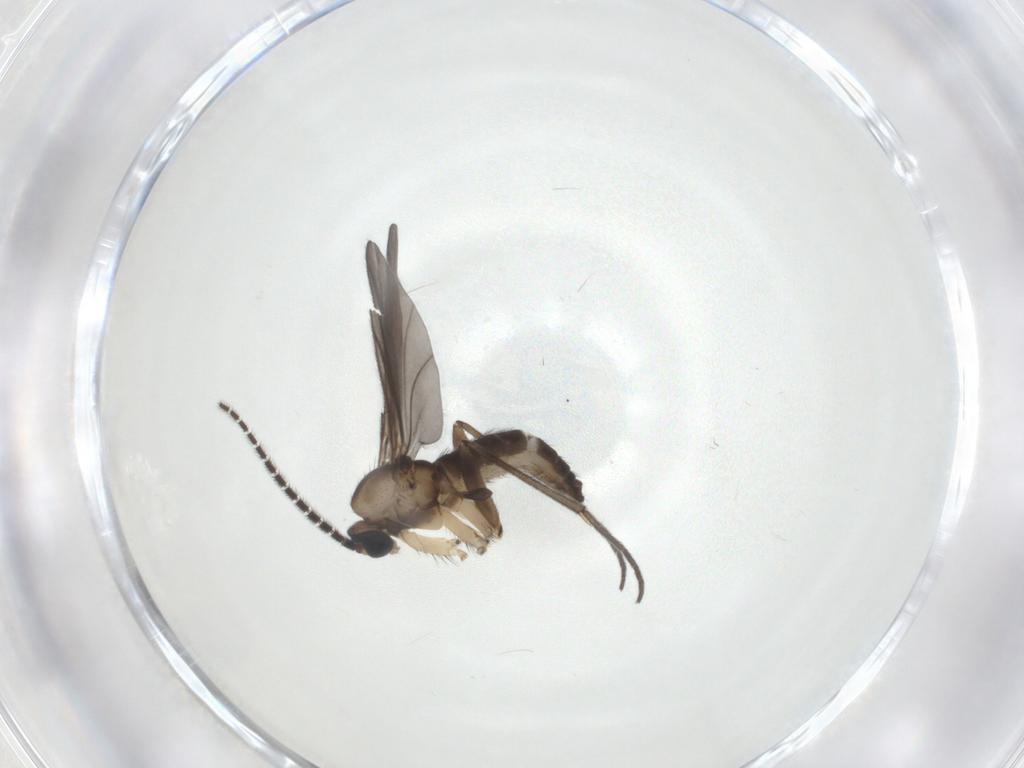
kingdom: Animalia
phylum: Arthropoda
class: Insecta
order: Diptera
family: Sciaridae
